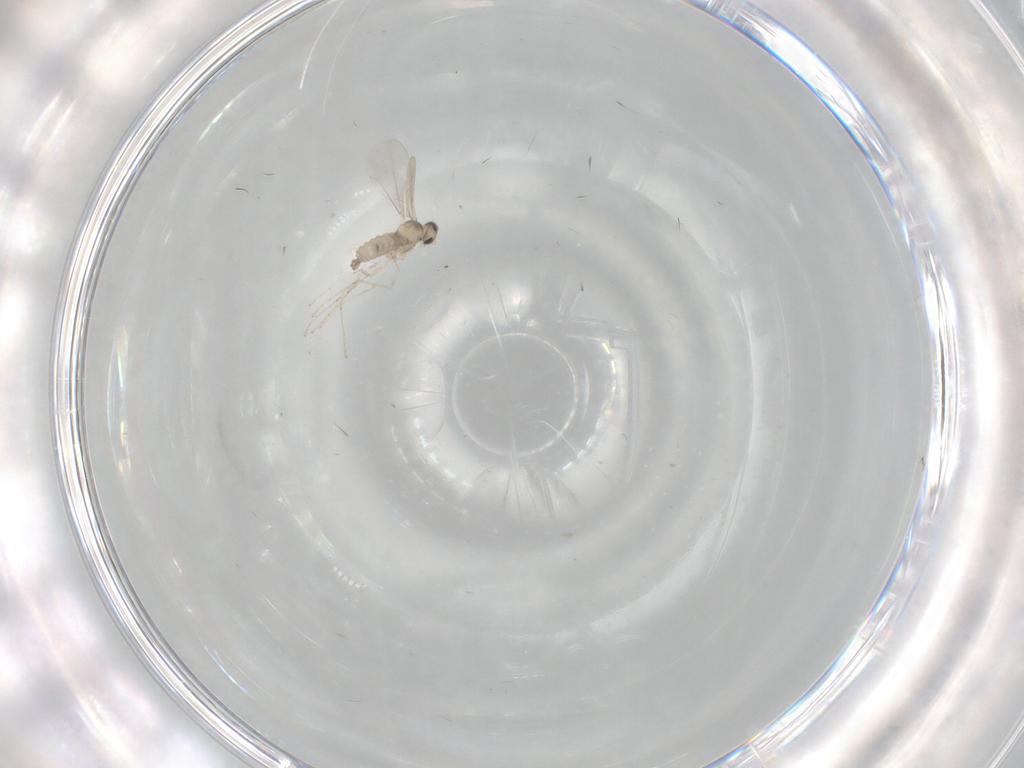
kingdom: Animalia
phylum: Arthropoda
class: Insecta
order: Diptera
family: Cecidomyiidae
